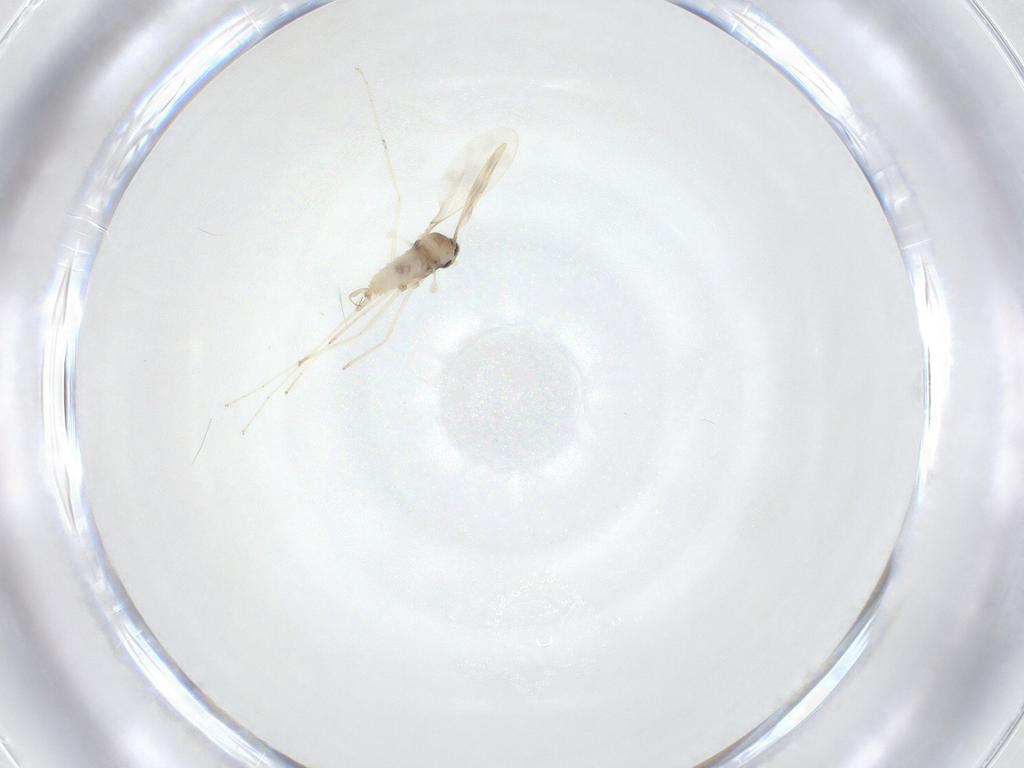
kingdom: Animalia
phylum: Arthropoda
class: Insecta
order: Diptera
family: Cecidomyiidae
